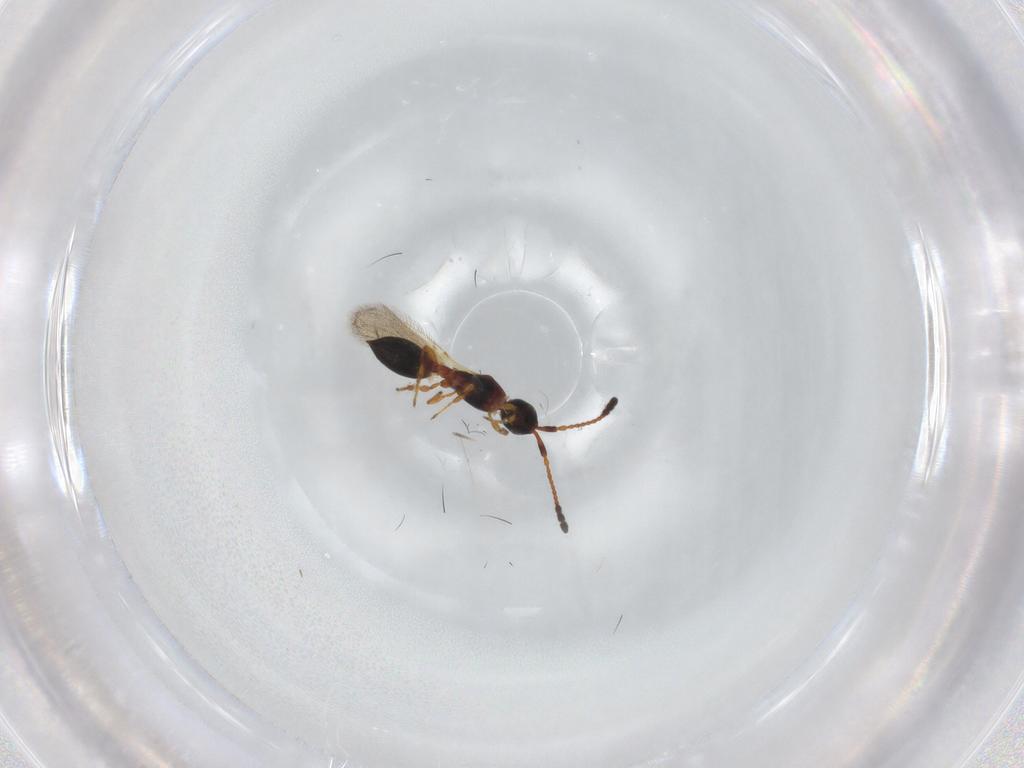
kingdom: Animalia
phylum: Arthropoda
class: Insecta
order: Hymenoptera
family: Diapriidae
